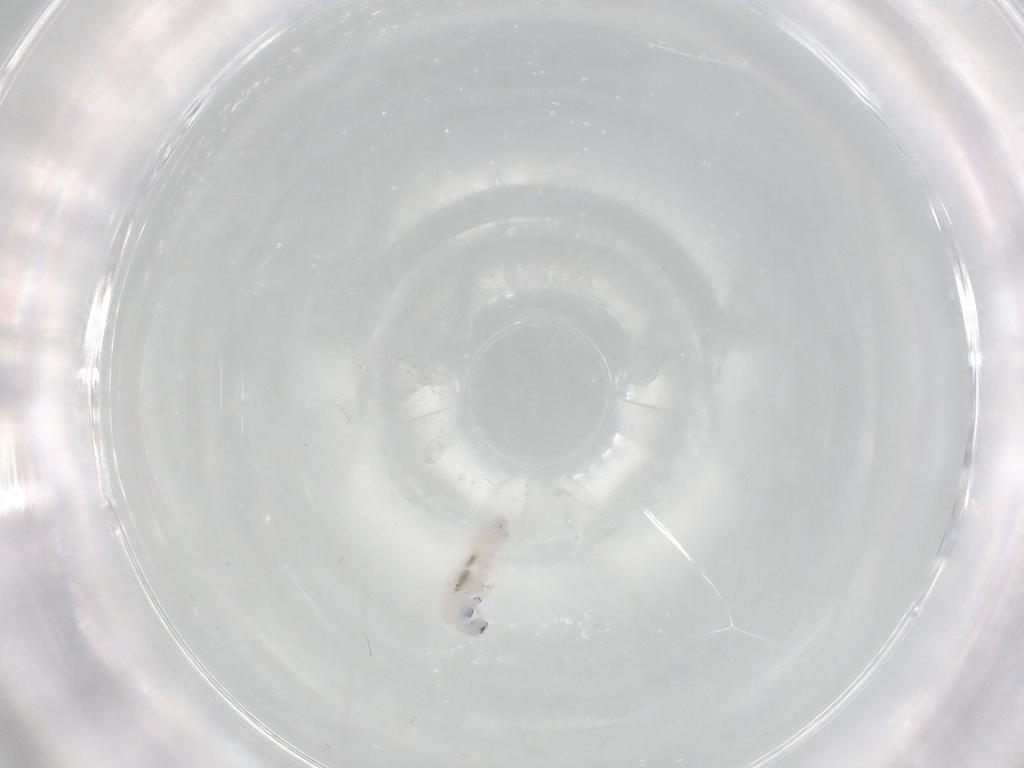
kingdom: Animalia
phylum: Arthropoda
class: Collembola
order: Entomobryomorpha
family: Entomobryidae
